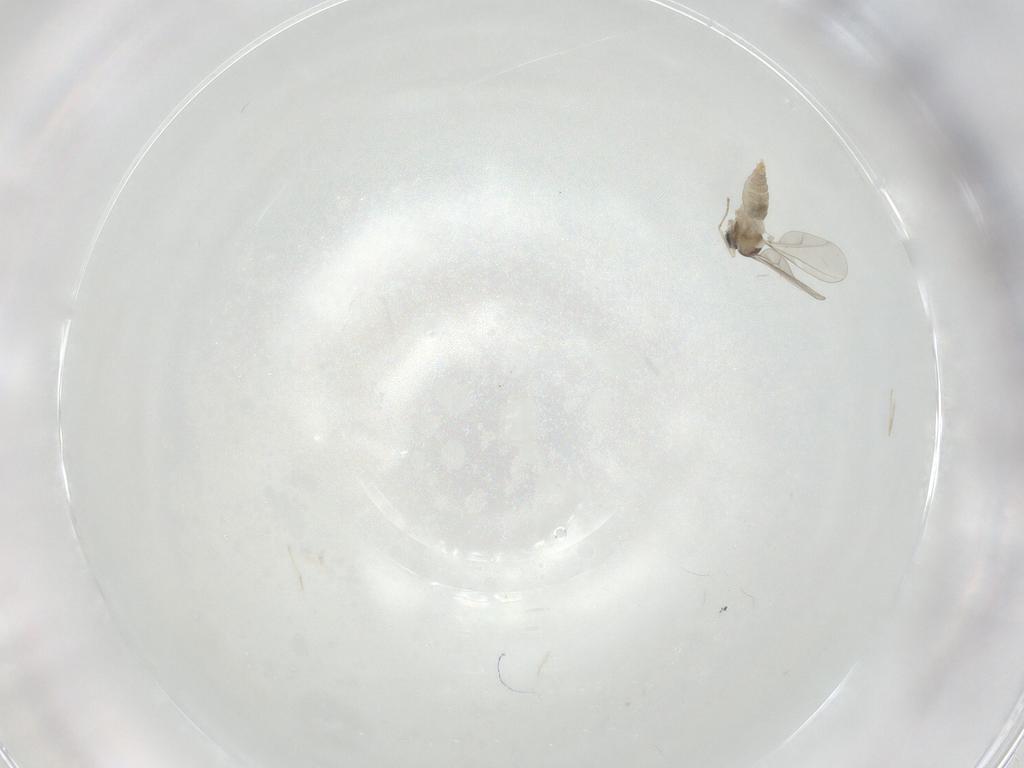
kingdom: Animalia
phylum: Arthropoda
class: Insecta
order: Diptera
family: Cecidomyiidae
